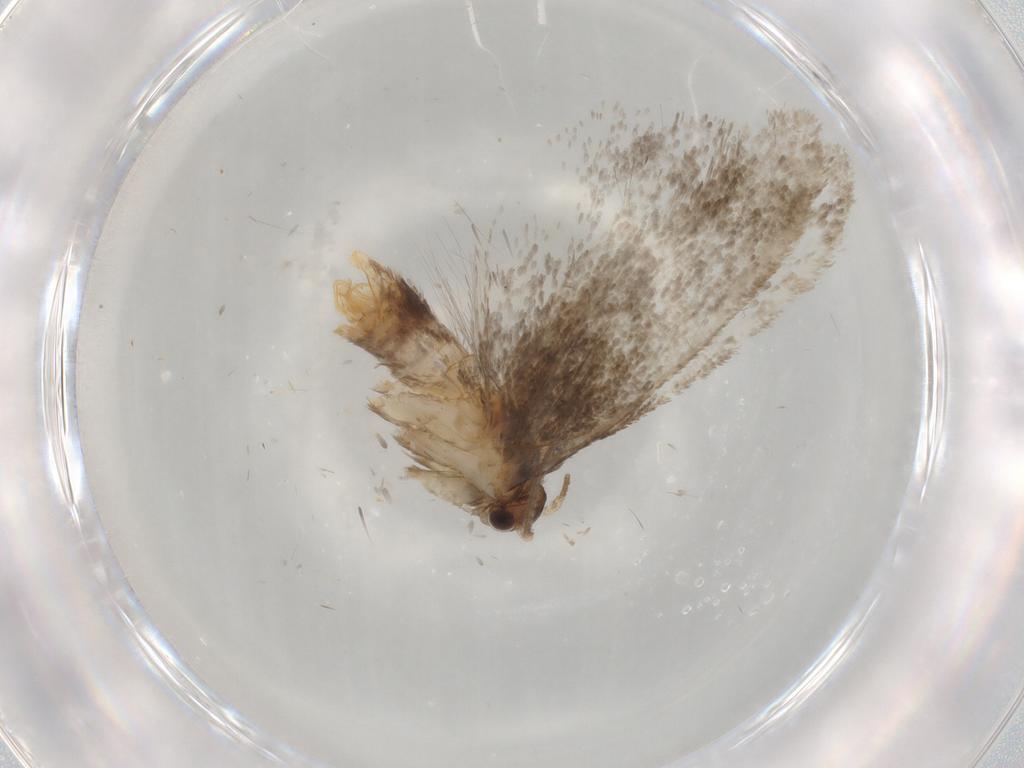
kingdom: Animalia
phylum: Arthropoda
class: Insecta
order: Lepidoptera
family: Dryadaulidae
